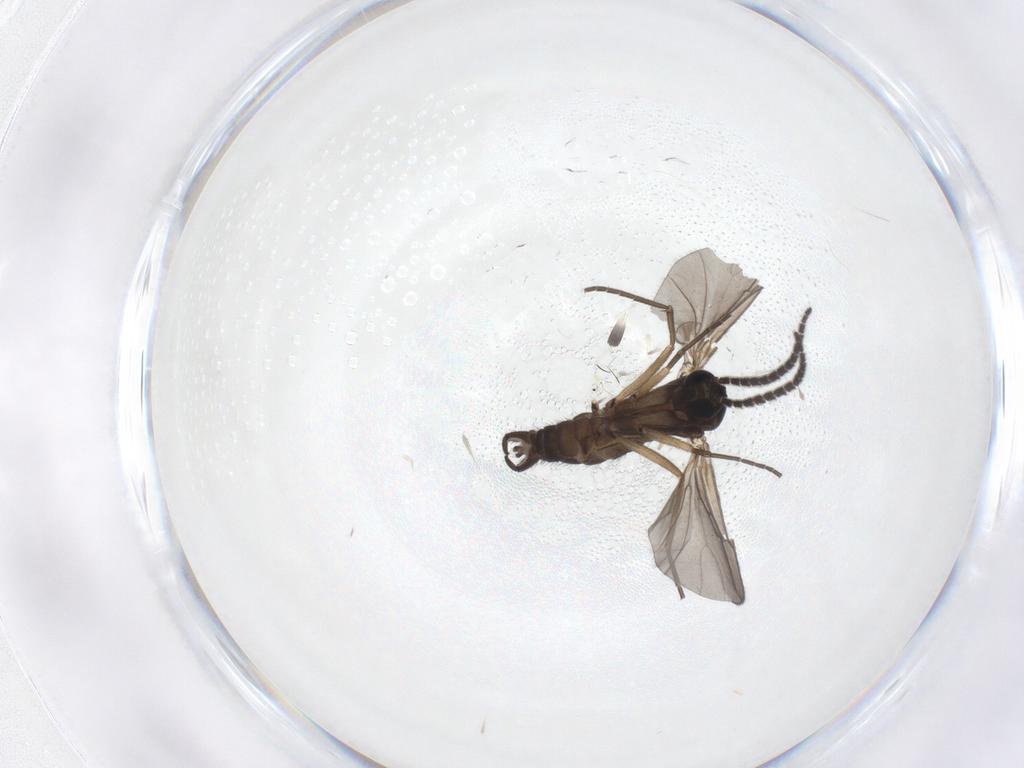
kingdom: Animalia
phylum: Arthropoda
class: Insecta
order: Diptera
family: Sciaridae
